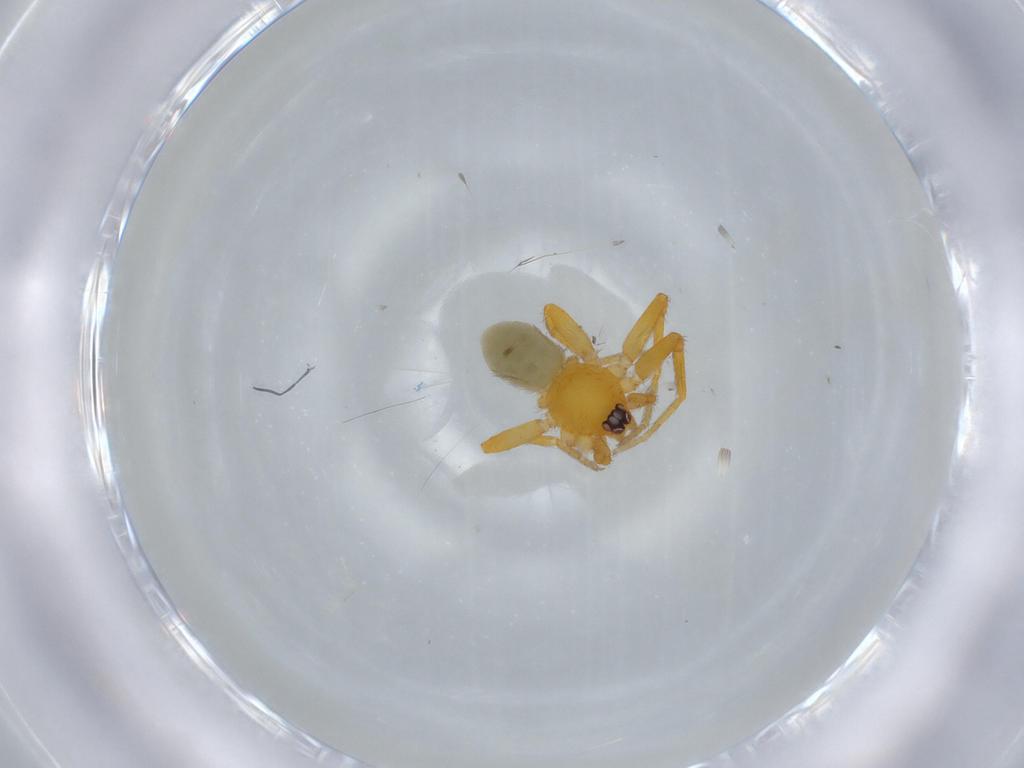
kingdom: Animalia
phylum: Arthropoda
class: Arachnida
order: Araneae
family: Oonopidae
